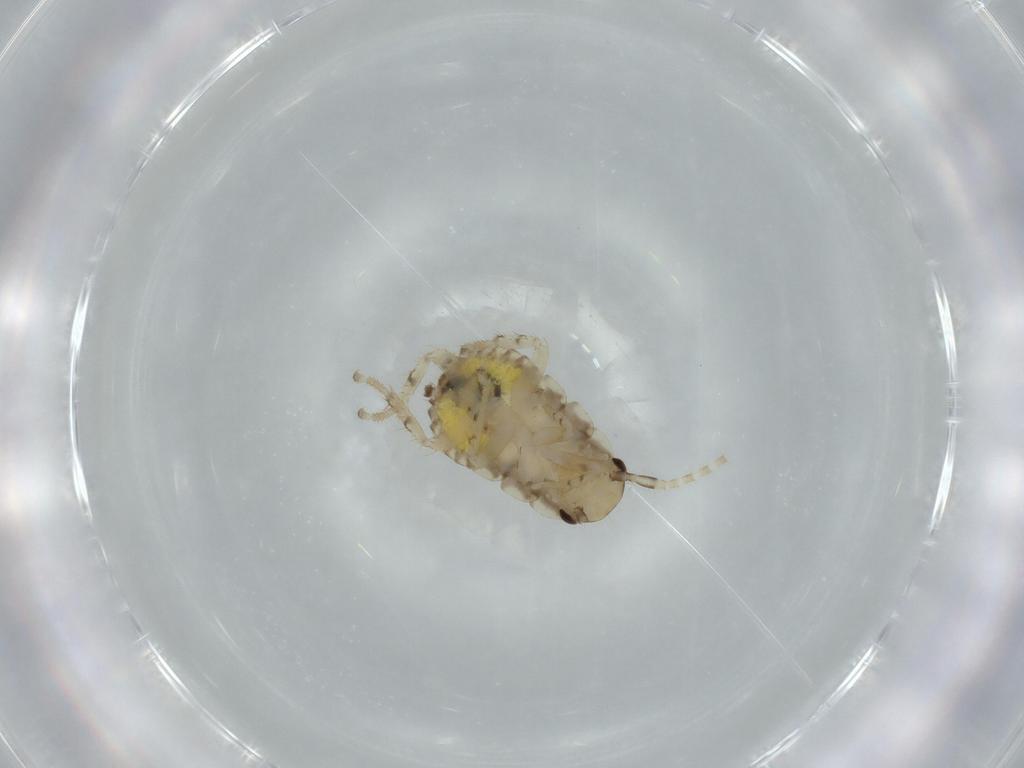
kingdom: Animalia
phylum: Arthropoda
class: Insecta
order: Blattodea
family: Ectobiidae
